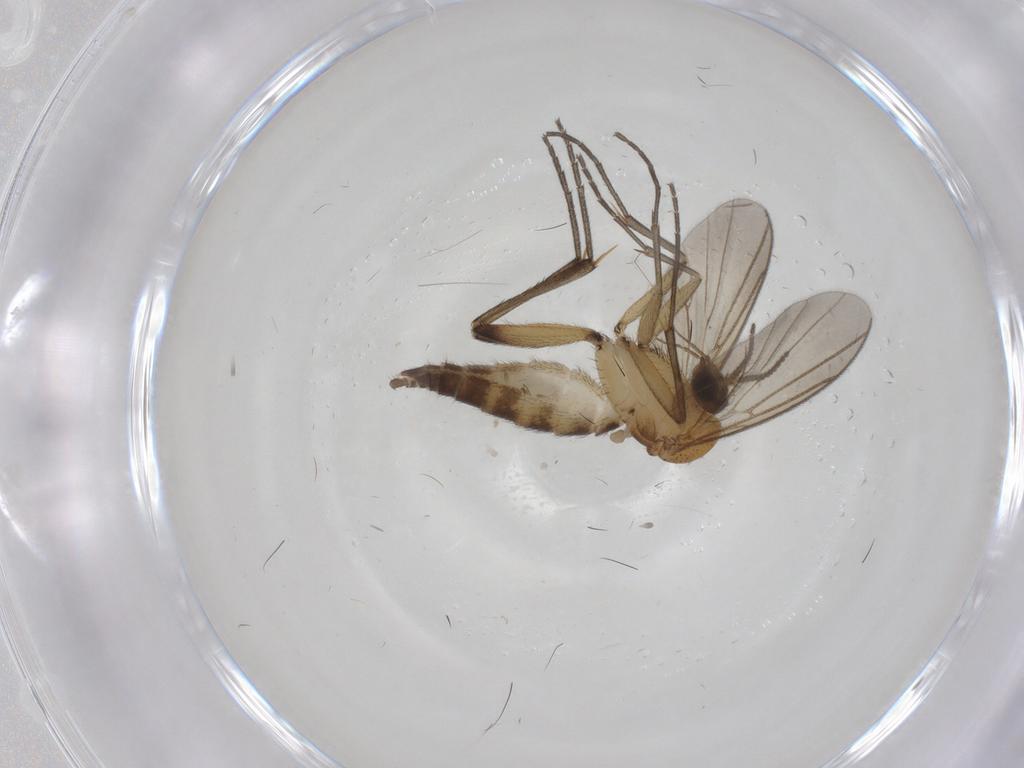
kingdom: Animalia
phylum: Arthropoda
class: Insecta
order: Diptera
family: Mycetophilidae
